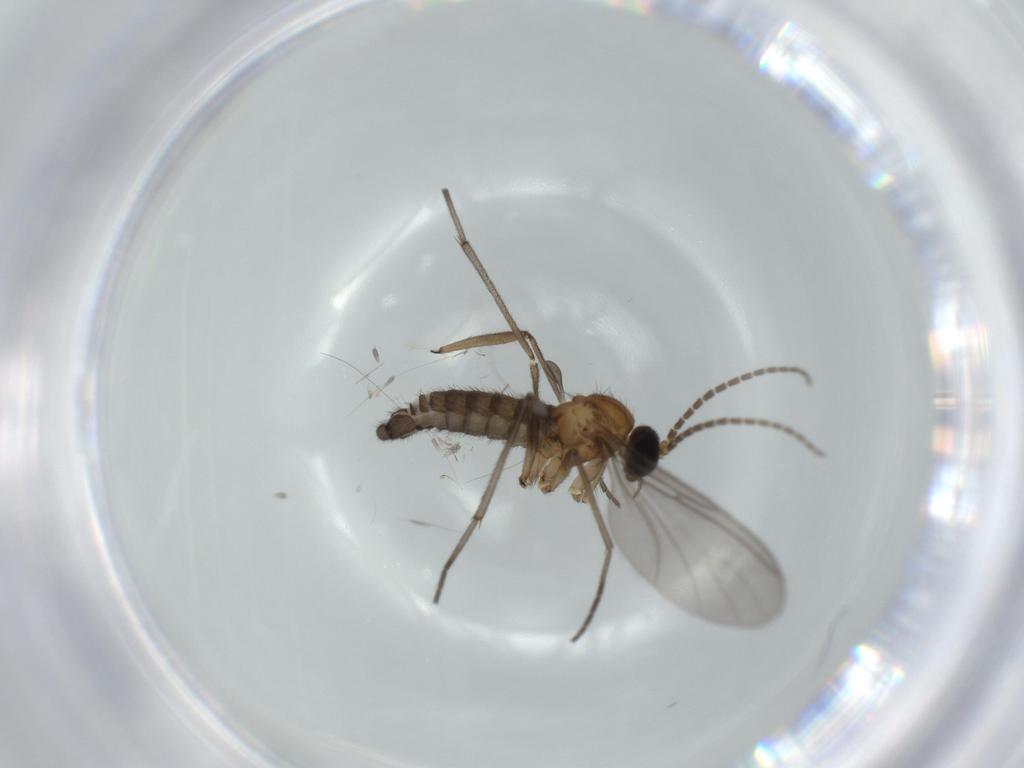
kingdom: Animalia
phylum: Arthropoda
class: Insecta
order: Diptera
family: Sciaridae
